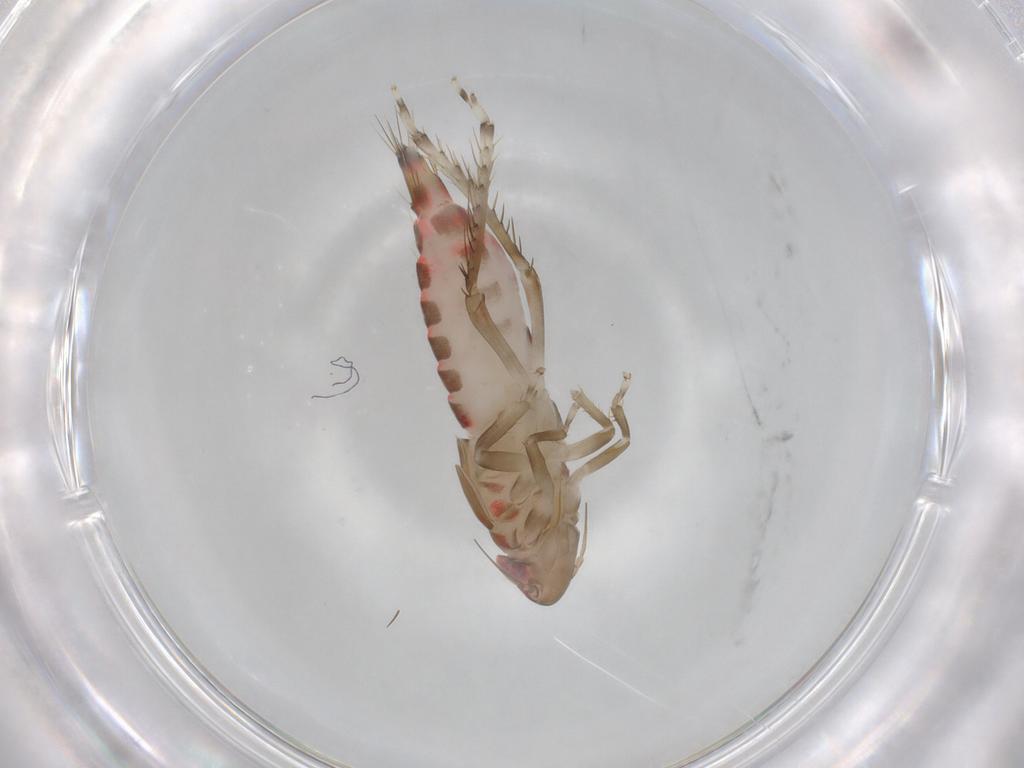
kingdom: Animalia
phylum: Arthropoda
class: Insecta
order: Hemiptera
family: Cicadellidae
